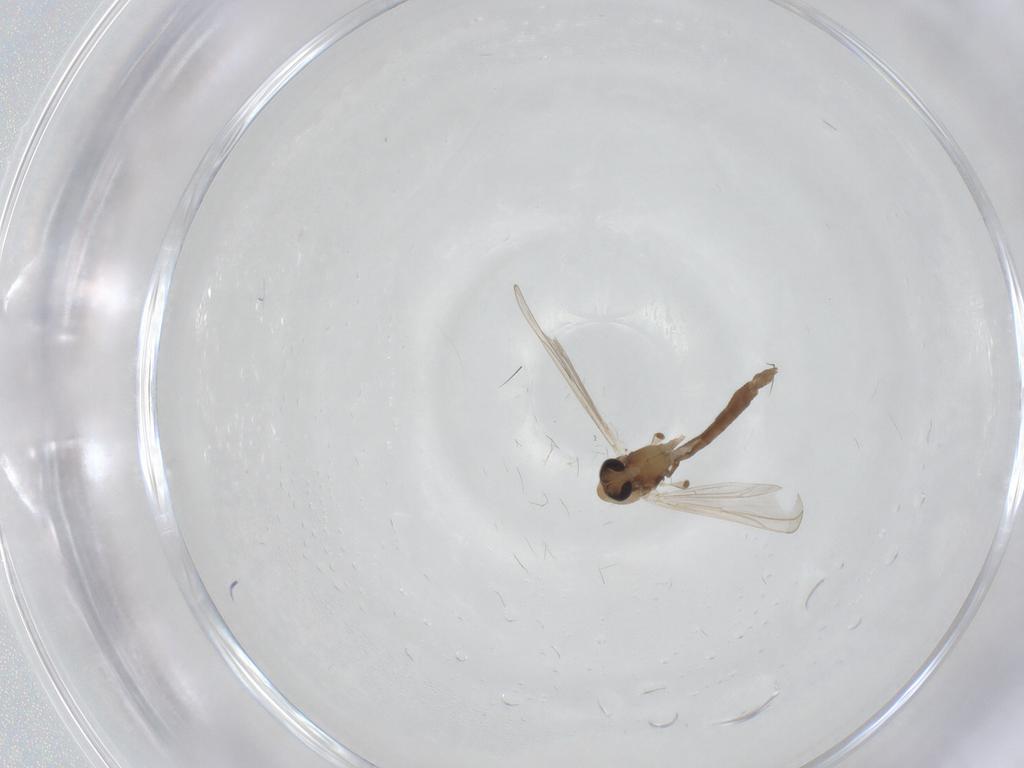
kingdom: Animalia
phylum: Arthropoda
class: Insecta
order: Diptera
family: Chironomidae
